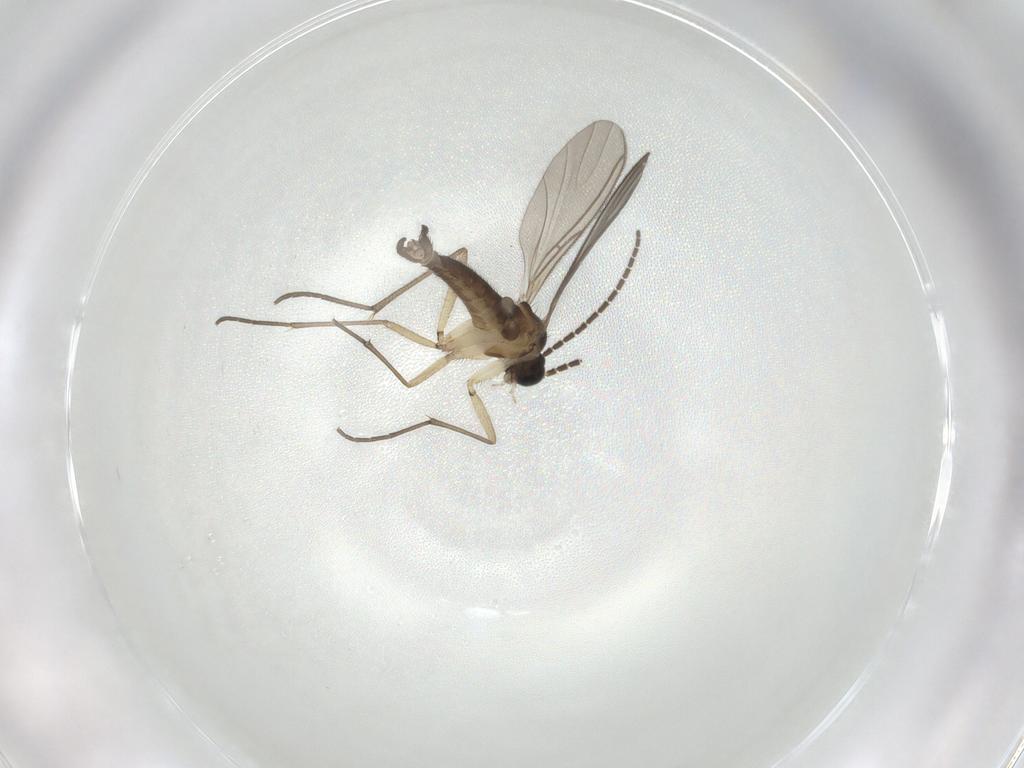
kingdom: Animalia
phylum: Arthropoda
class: Insecta
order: Diptera
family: Sciaridae
